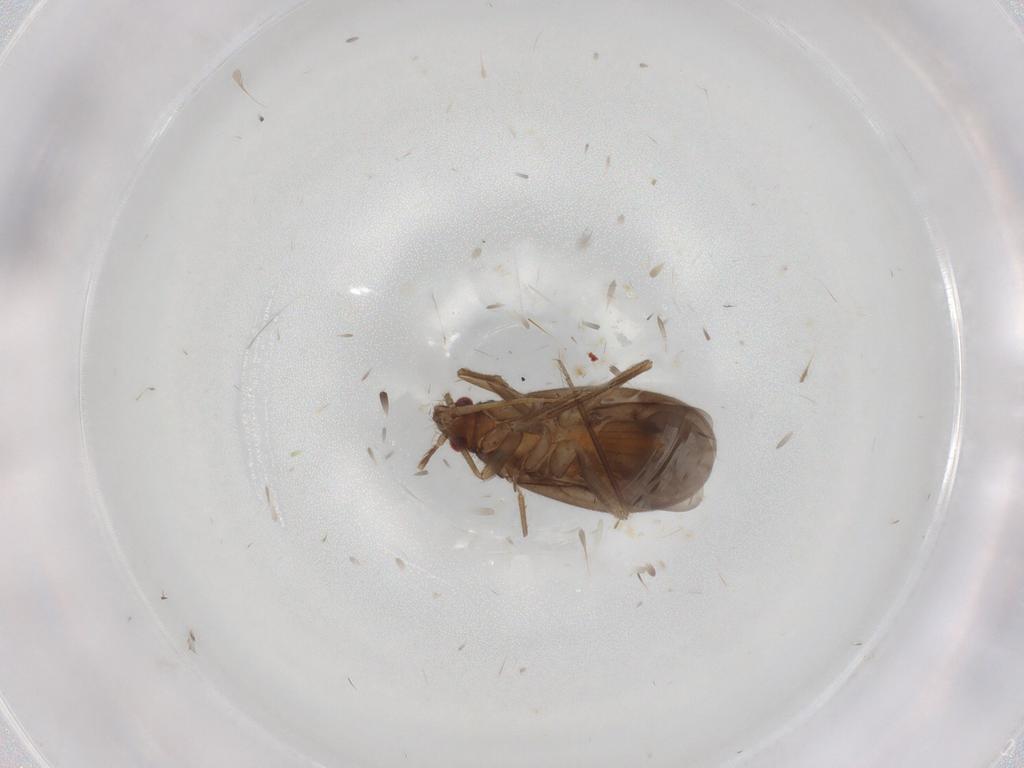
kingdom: Animalia
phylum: Arthropoda
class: Insecta
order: Hemiptera
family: Ceratocombidae
